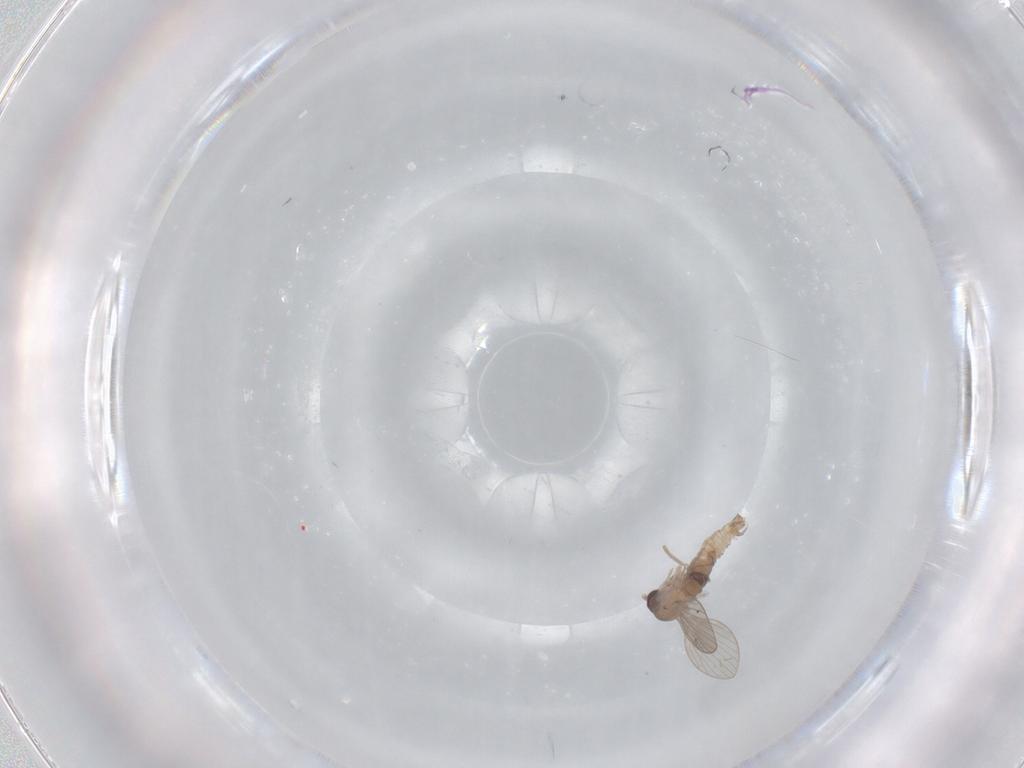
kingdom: Animalia
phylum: Arthropoda
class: Insecta
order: Diptera
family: Psychodidae
